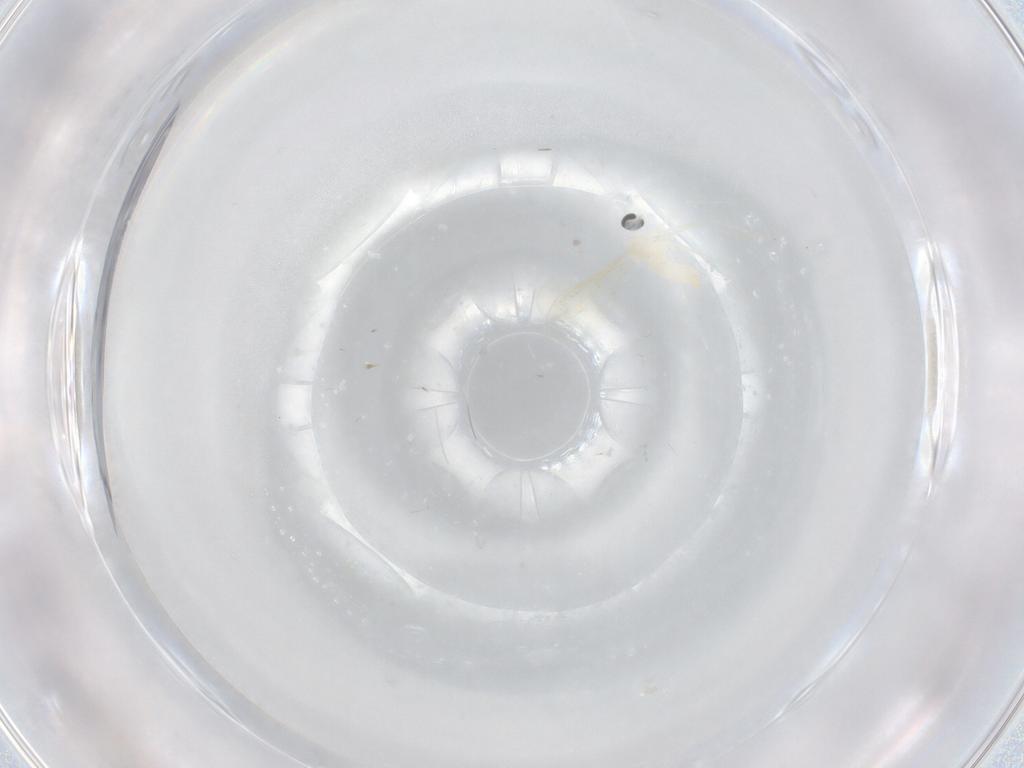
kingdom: Animalia
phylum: Arthropoda
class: Insecta
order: Diptera
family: Cecidomyiidae
